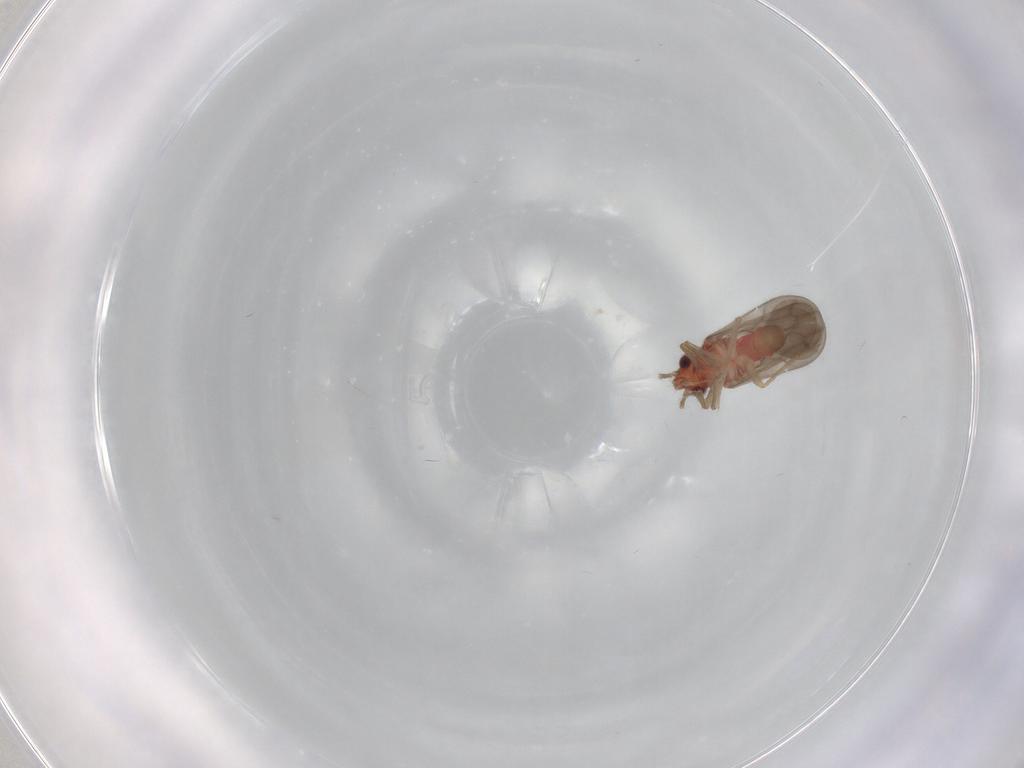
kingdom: Animalia
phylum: Arthropoda
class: Insecta
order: Hemiptera
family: Ceratocombidae
